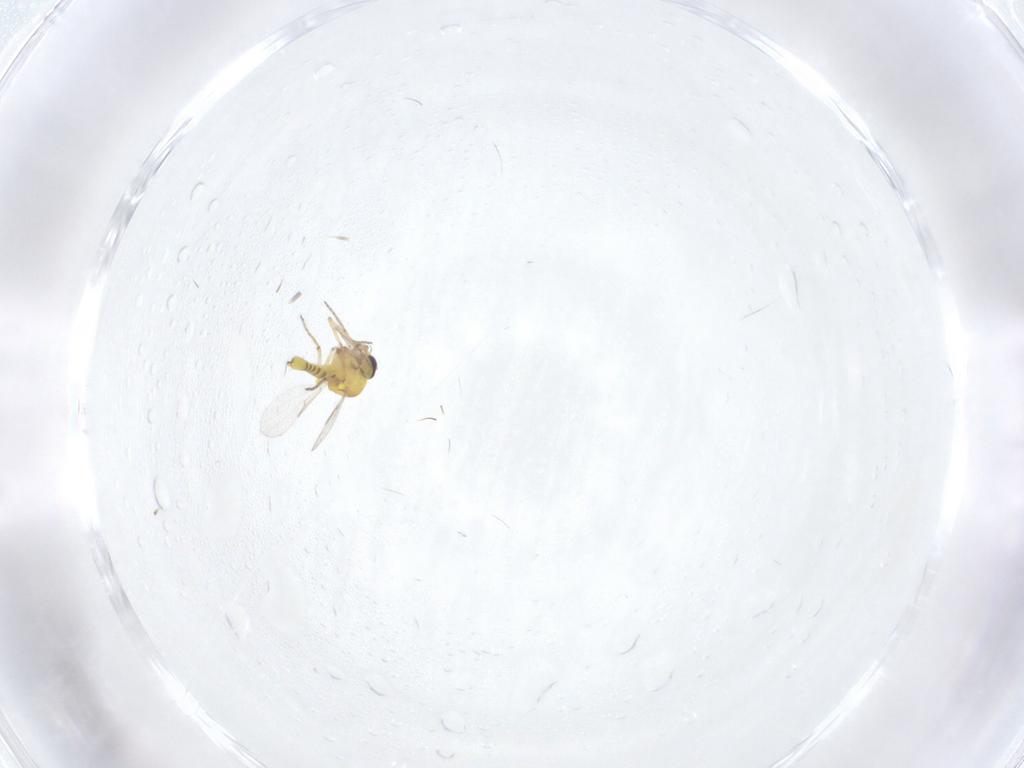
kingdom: Animalia
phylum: Arthropoda
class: Insecta
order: Diptera
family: Ceratopogonidae
